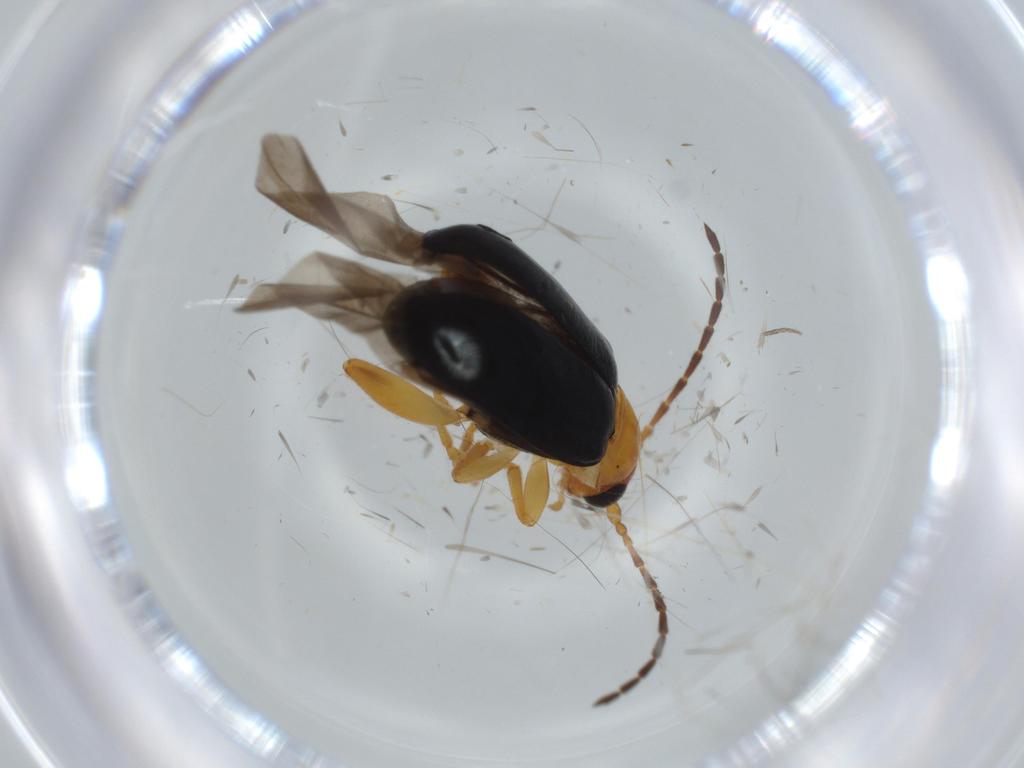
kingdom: Animalia
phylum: Arthropoda
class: Insecta
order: Coleoptera
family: Chrysomelidae
